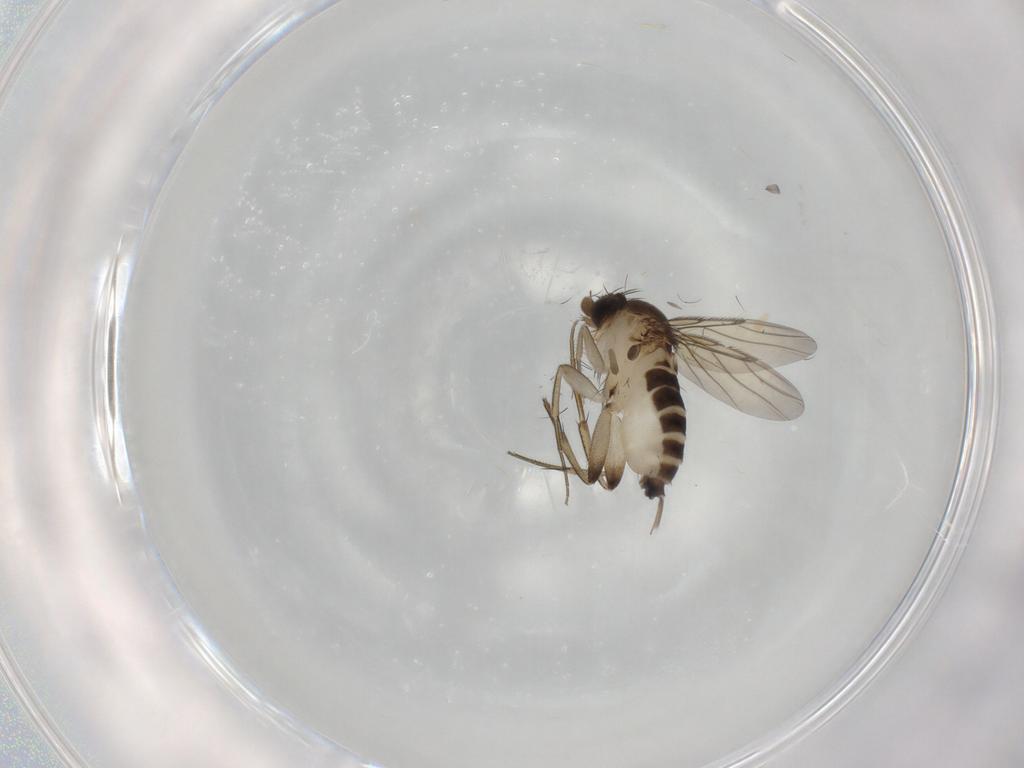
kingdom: Animalia
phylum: Arthropoda
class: Insecta
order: Diptera
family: Phoridae
